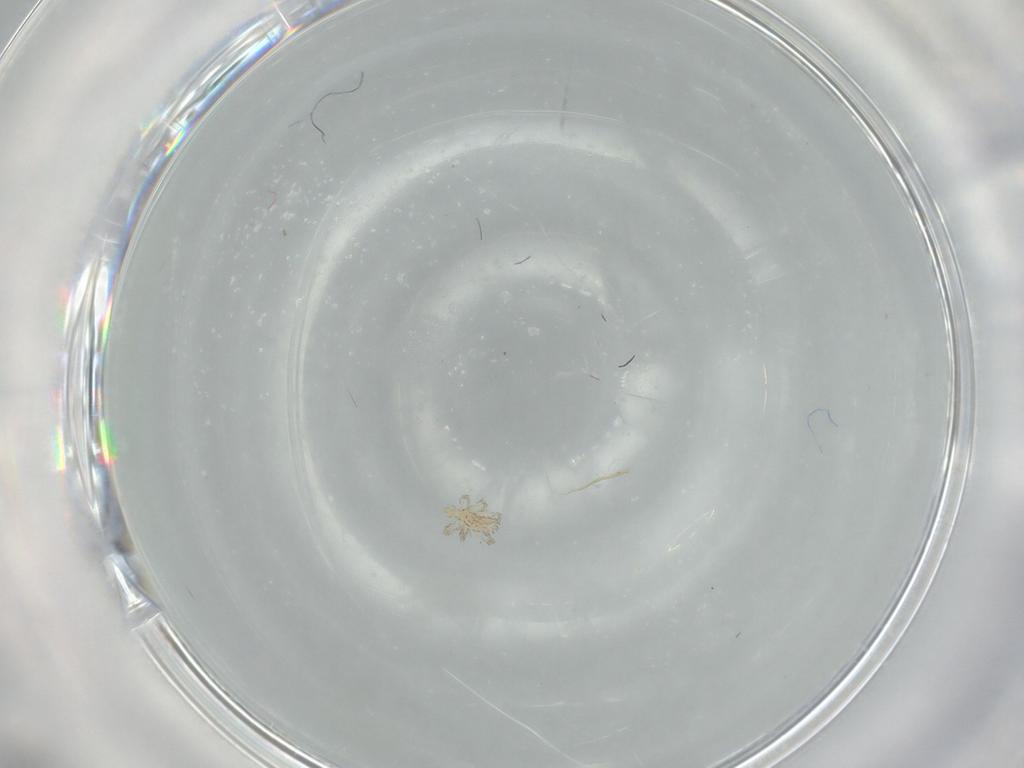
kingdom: Animalia
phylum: Arthropoda
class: Arachnida
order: Trombidiformes
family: Erythraeidae
